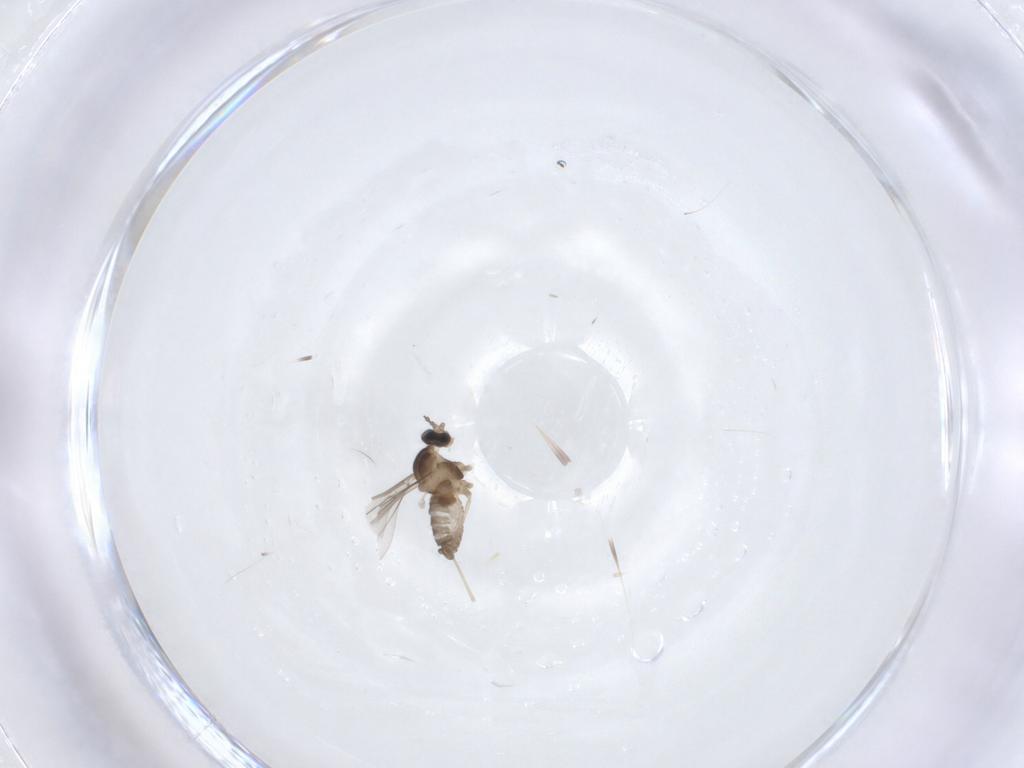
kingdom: Animalia
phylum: Arthropoda
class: Insecta
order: Diptera
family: Cecidomyiidae
